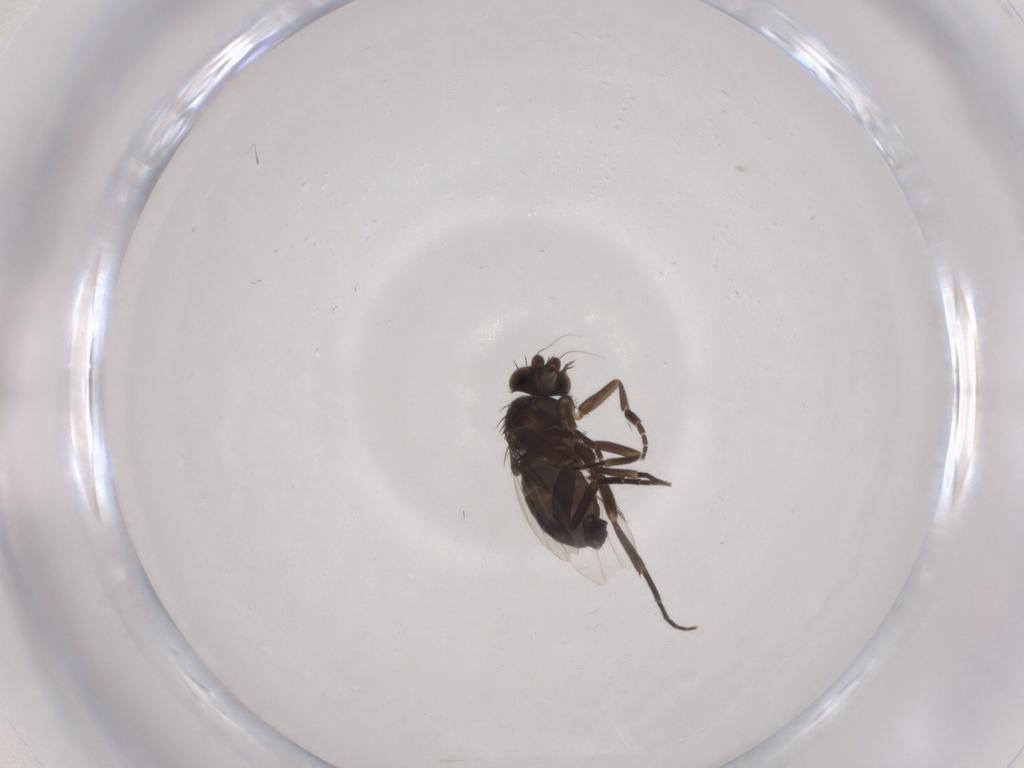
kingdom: Animalia
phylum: Arthropoda
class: Insecta
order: Diptera
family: Phoridae
